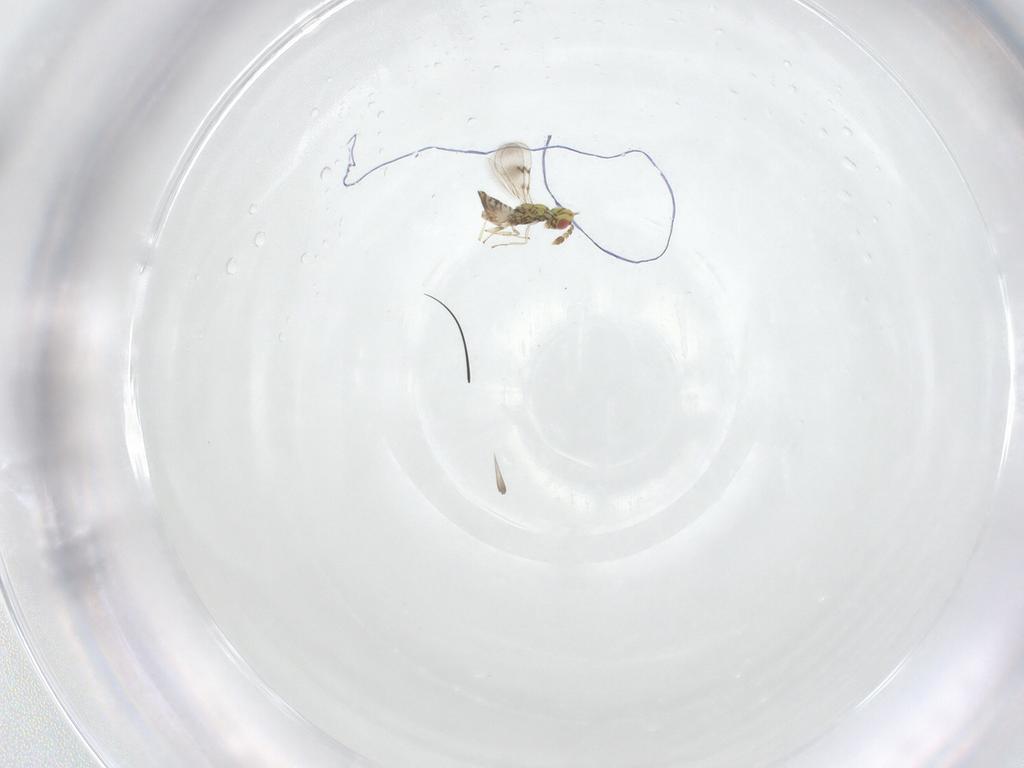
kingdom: Animalia
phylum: Arthropoda
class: Insecta
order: Hymenoptera
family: Eulophidae
